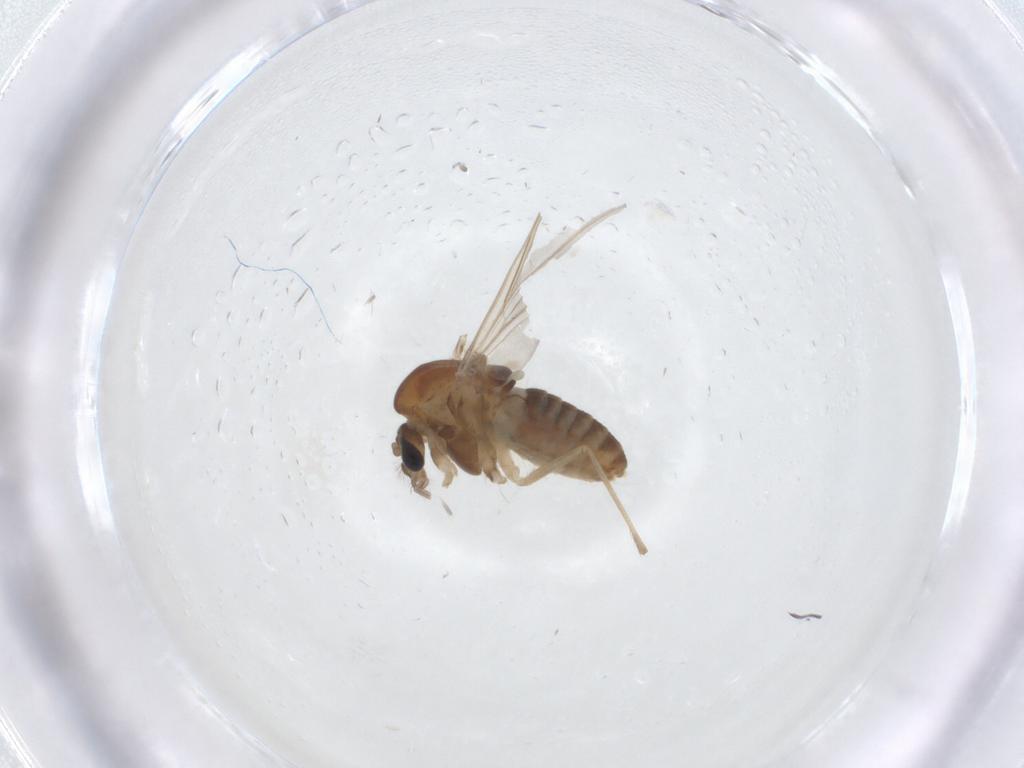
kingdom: Animalia
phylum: Arthropoda
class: Insecta
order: Diptera
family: Chironomidae
